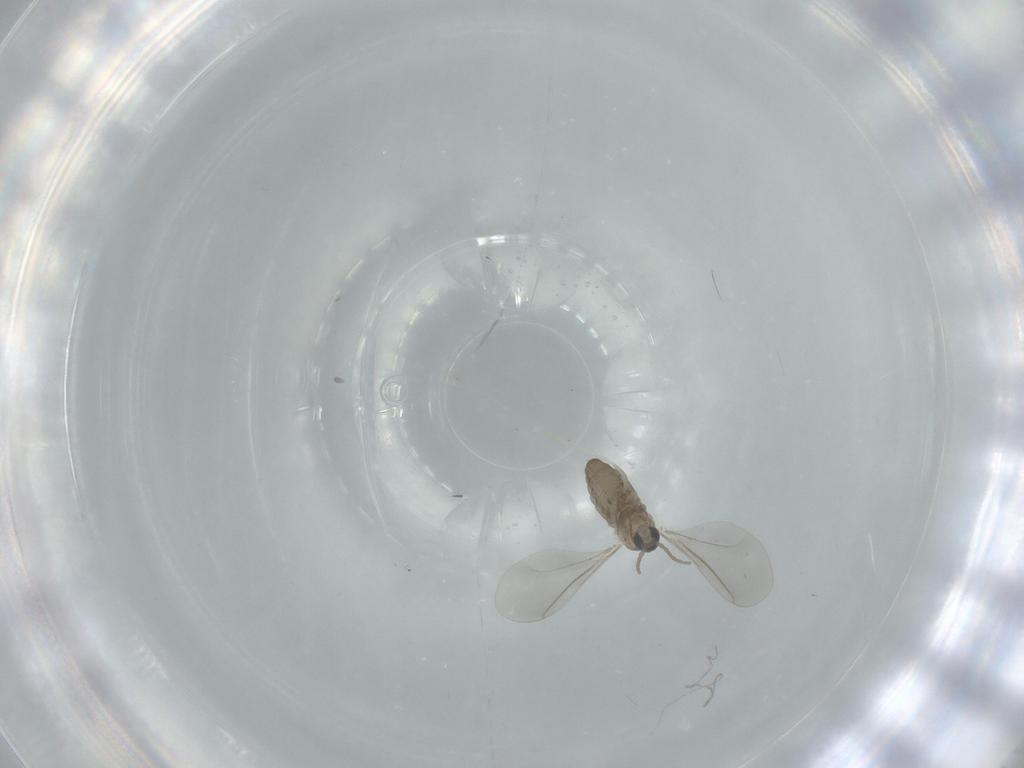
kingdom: Animalia
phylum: Arthropoda
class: Insecta
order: Diptera
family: Cecidomyiidae
